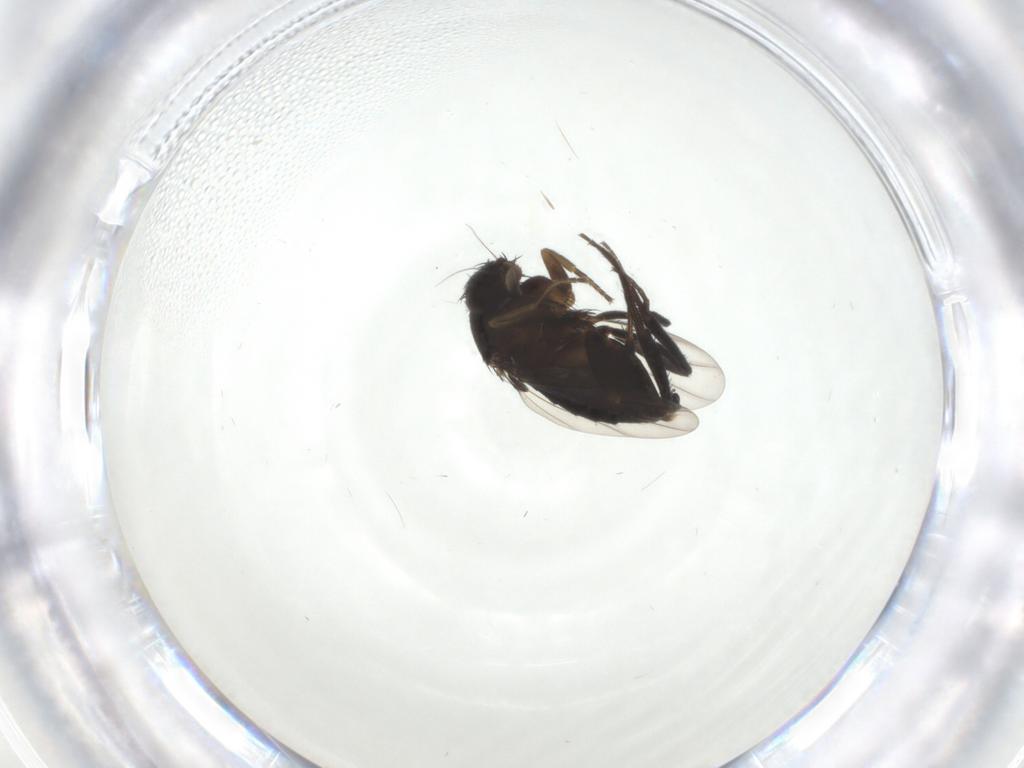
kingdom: Animalia
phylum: Arthropoda
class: Insecta
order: Diptera
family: Phoridae
